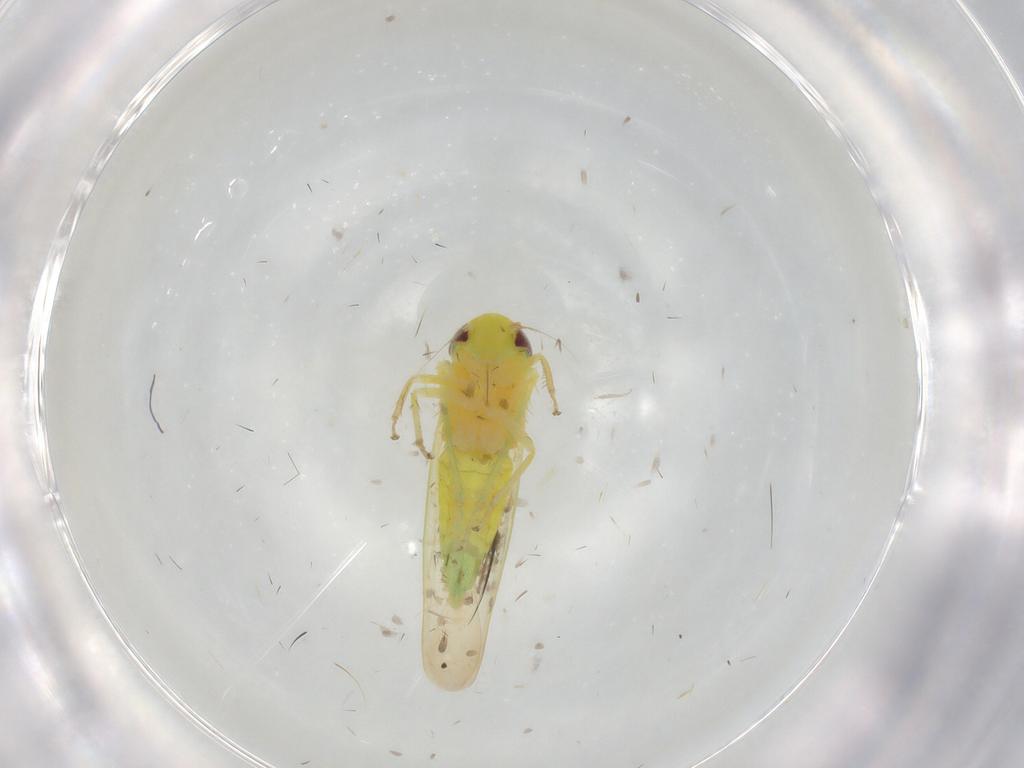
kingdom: Animalia
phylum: Arthropoda
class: Insecta
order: Hemiptera
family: Cicadellidae
